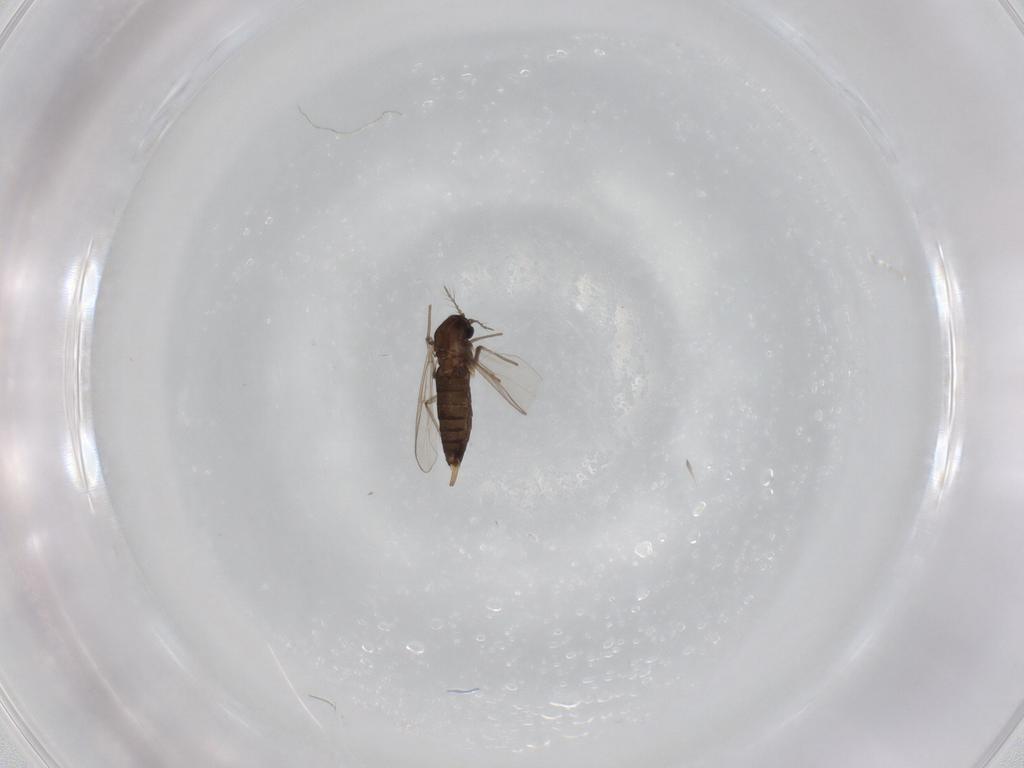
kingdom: Animalia
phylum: Arthropoda
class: Insecta
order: Diptera
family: Chironomidae
